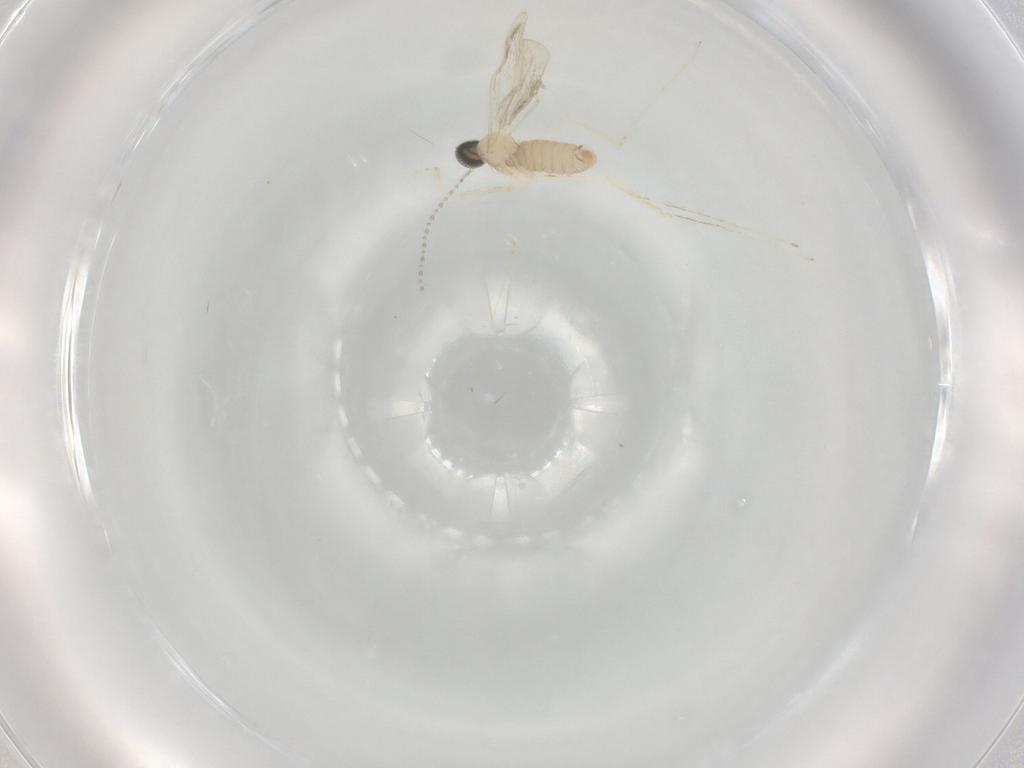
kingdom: Animalia
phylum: Arthropoda
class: Insecta
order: Diptera
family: Cecidomyiidae
